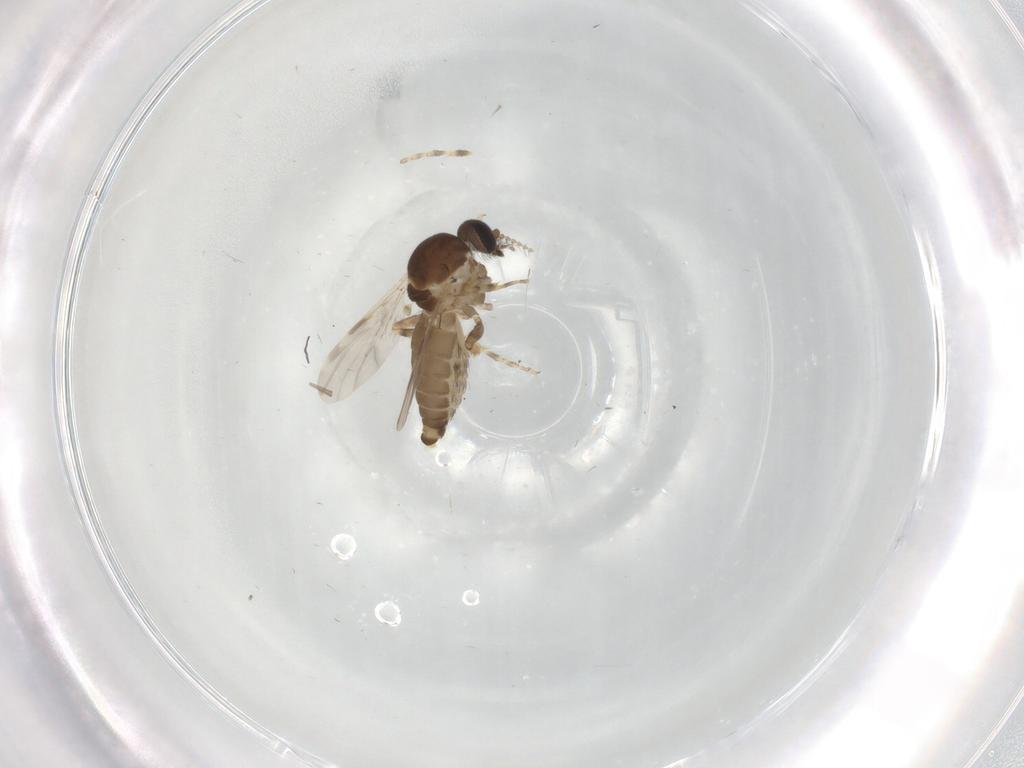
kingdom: Animalia
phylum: Arthropoda
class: Insecta
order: Diptera
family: Ceratopogonidae
